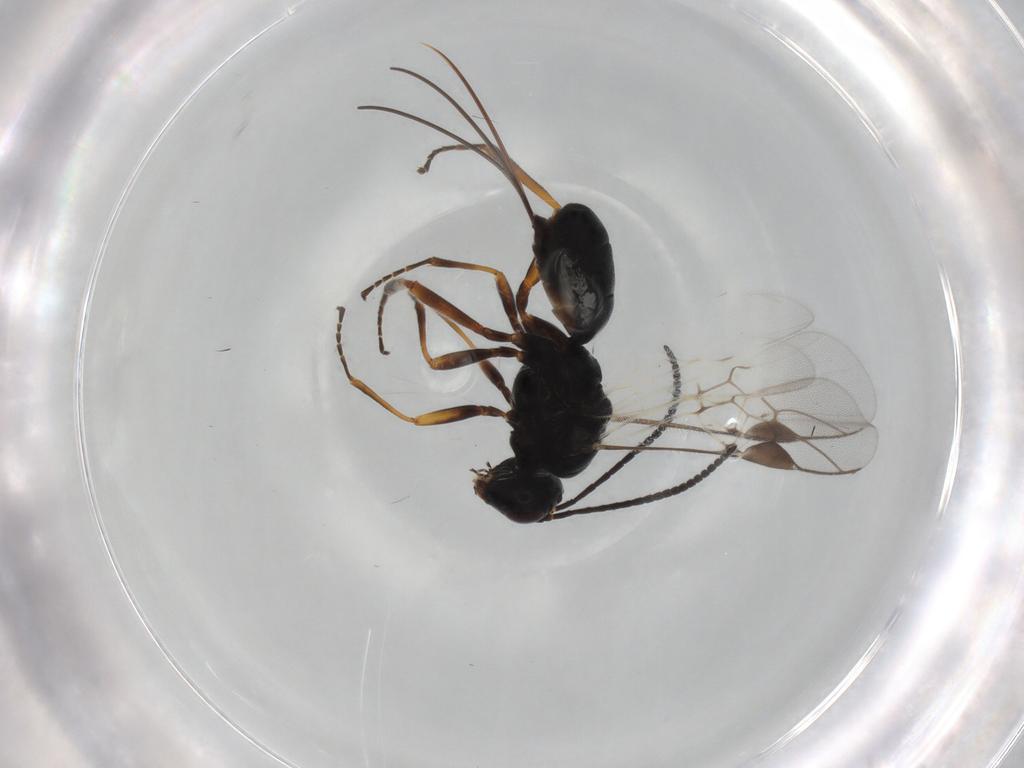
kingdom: Animalia
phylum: Arthropoda
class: Insecta
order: Hymenoptera
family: Braconidae
